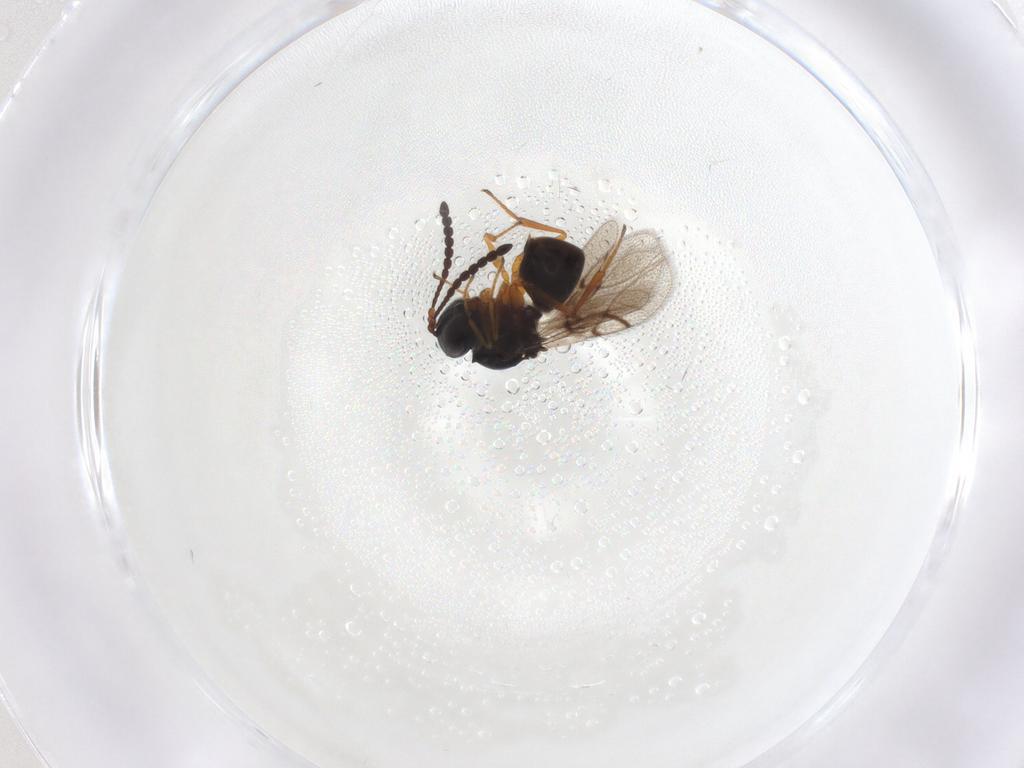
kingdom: Animalia
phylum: Arthropoda
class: Insecta
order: Hymenoptera
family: Figitidae
